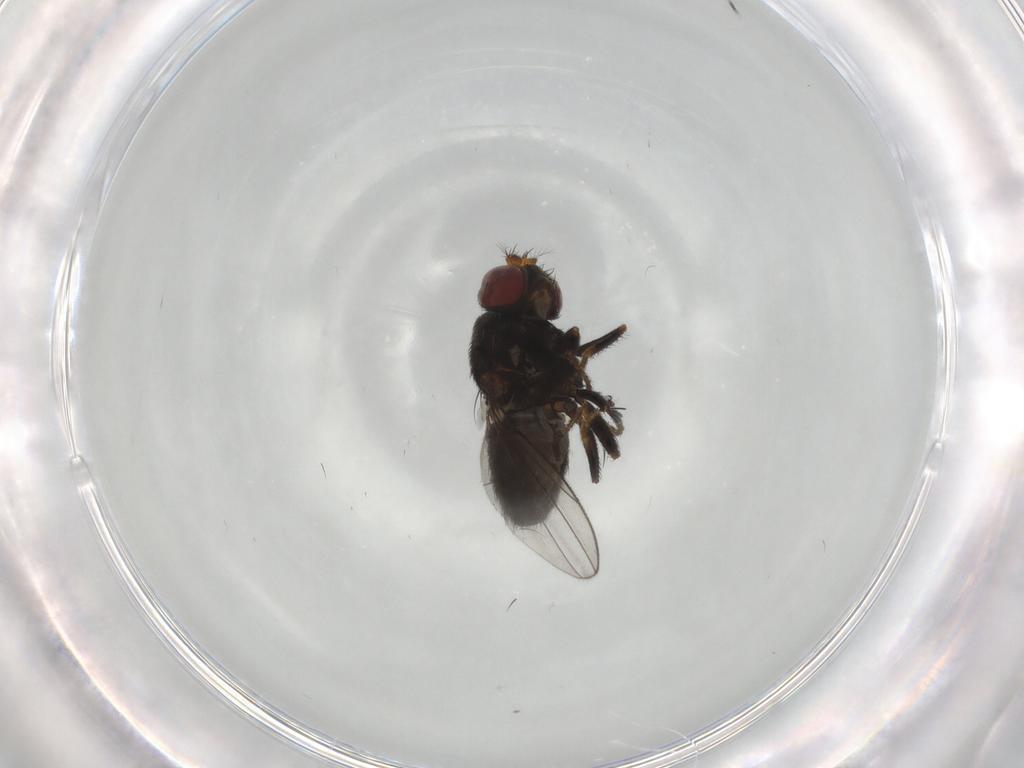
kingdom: Animalia
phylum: Arthropoda
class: Insecta
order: Diptera
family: Sciaridae
